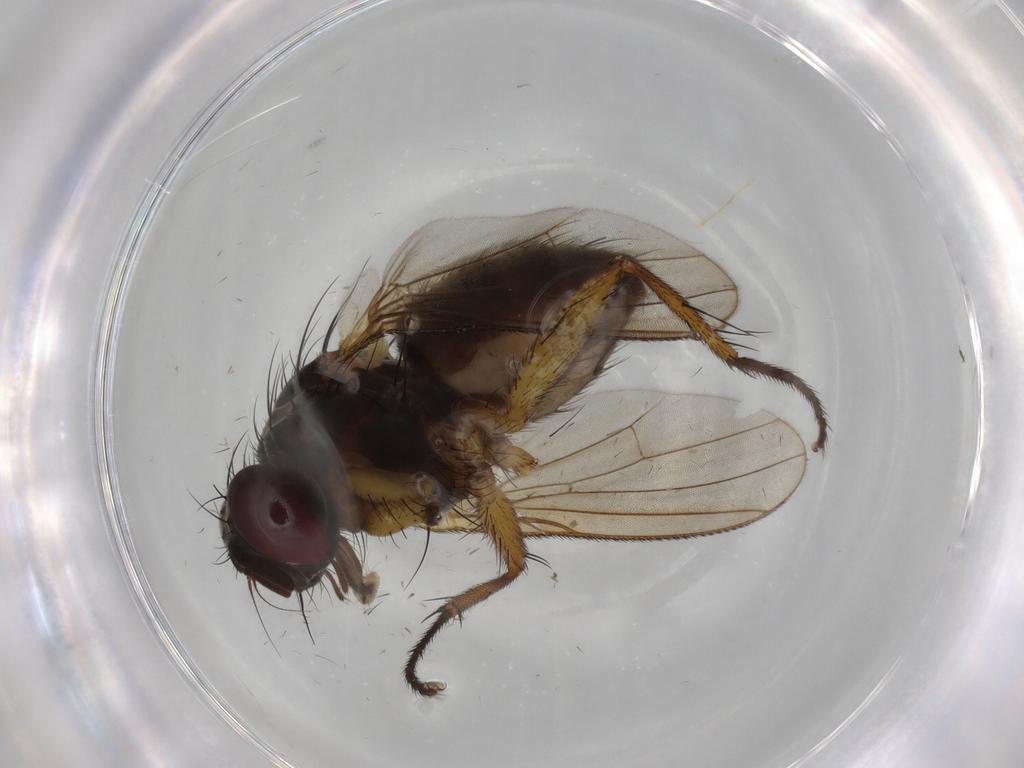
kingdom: Animalia
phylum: Arthropoda
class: Insecta
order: Diptera
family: Muscidae
